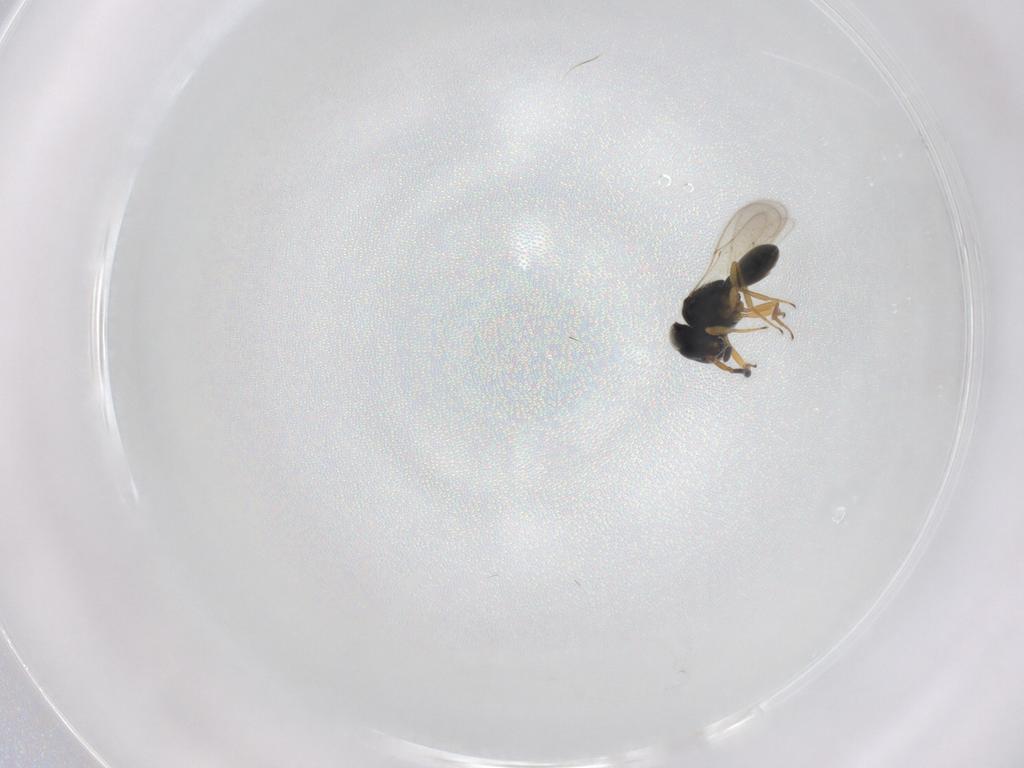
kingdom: Animalia
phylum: Arthropoda
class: Insecta
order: Hymenoptera
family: Scelionidae
